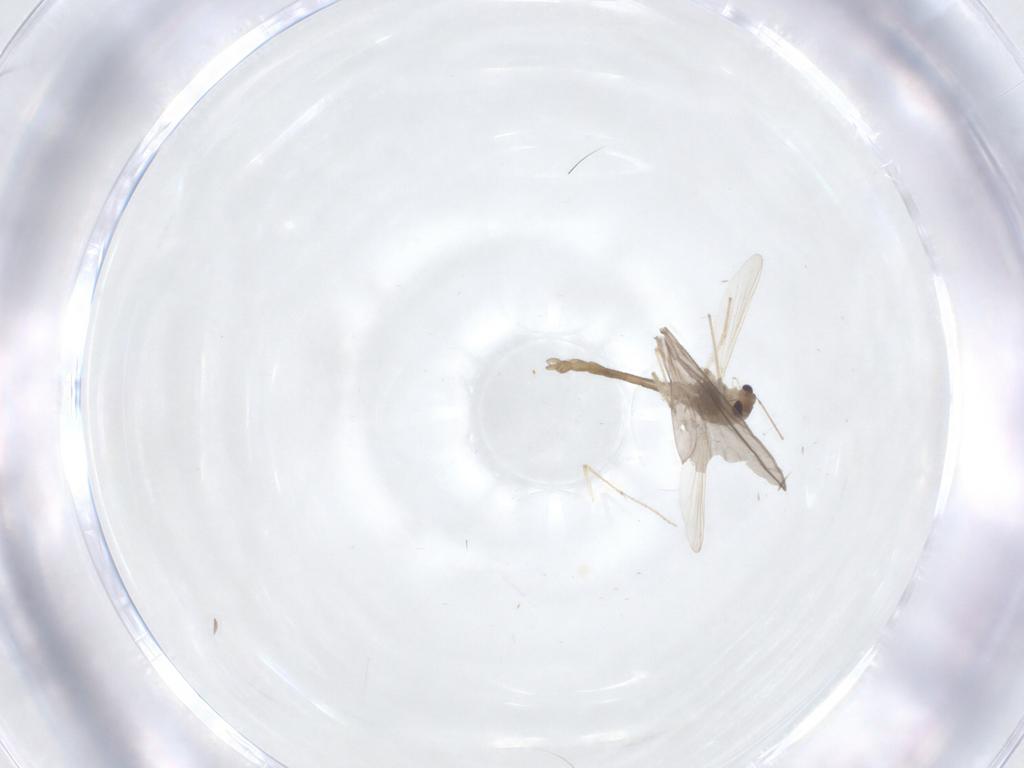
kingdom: Animalia
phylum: Arthropoda
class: Insecta
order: Diptera
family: Chironomidae
